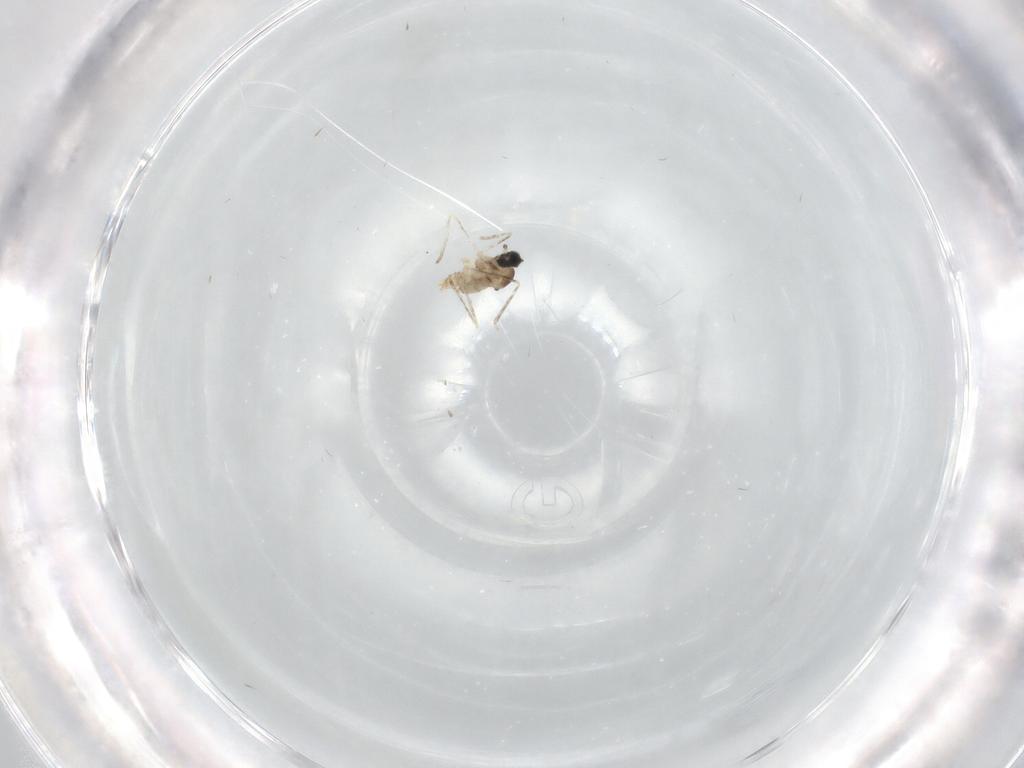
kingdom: Animalia
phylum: Arthropoda
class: Insecta
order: Diptera
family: Cecidomyiidae
